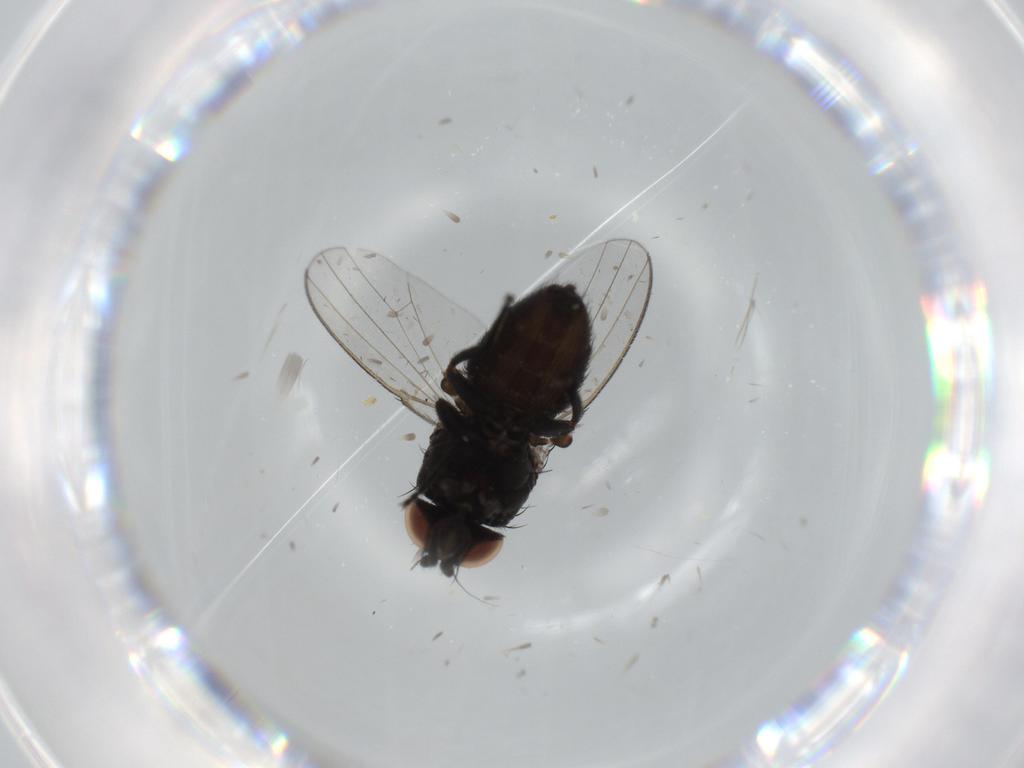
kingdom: Animalia
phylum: Arthropoda
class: Insecta
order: Diptera
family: Sciaridae
